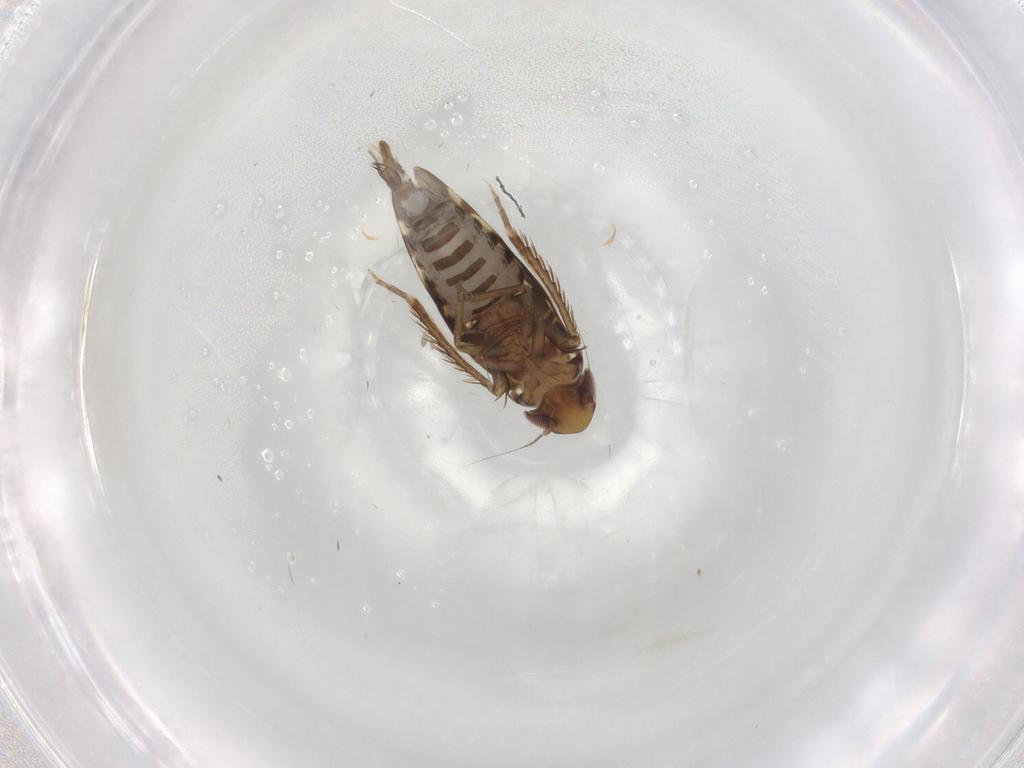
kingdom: Animalia
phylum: Arthropoda
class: Insecta
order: Hemiptera
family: Cicadellidae
